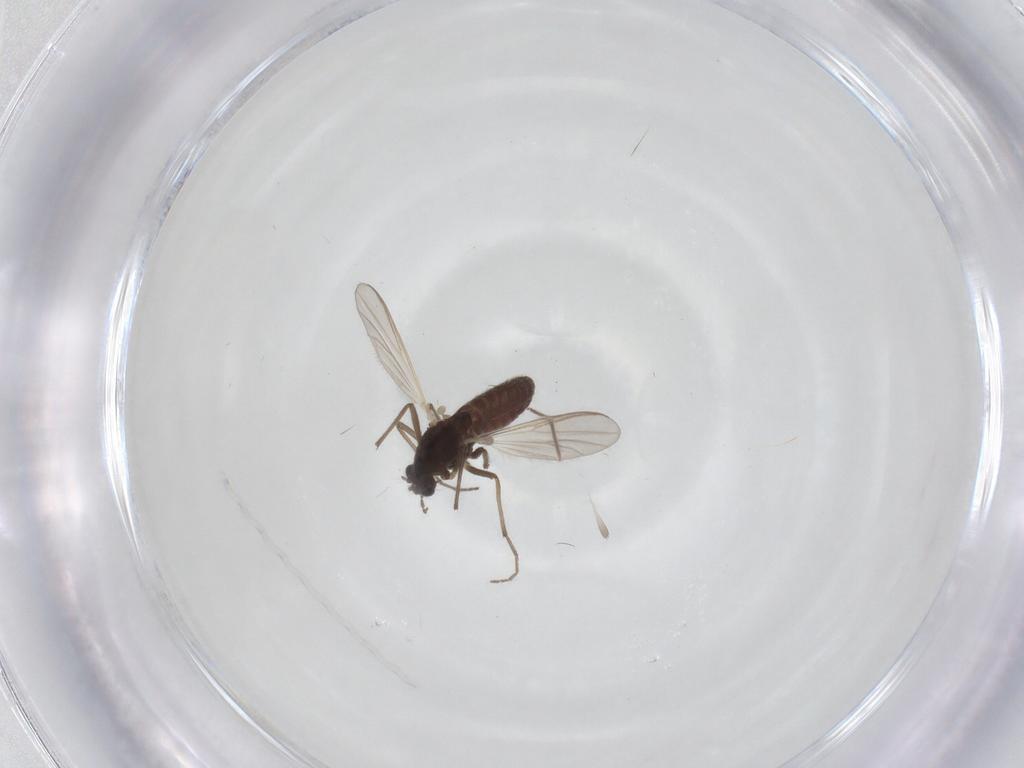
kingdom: Animalia
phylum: Arthropoda
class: Insecta
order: Diptera
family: Chironomidae
